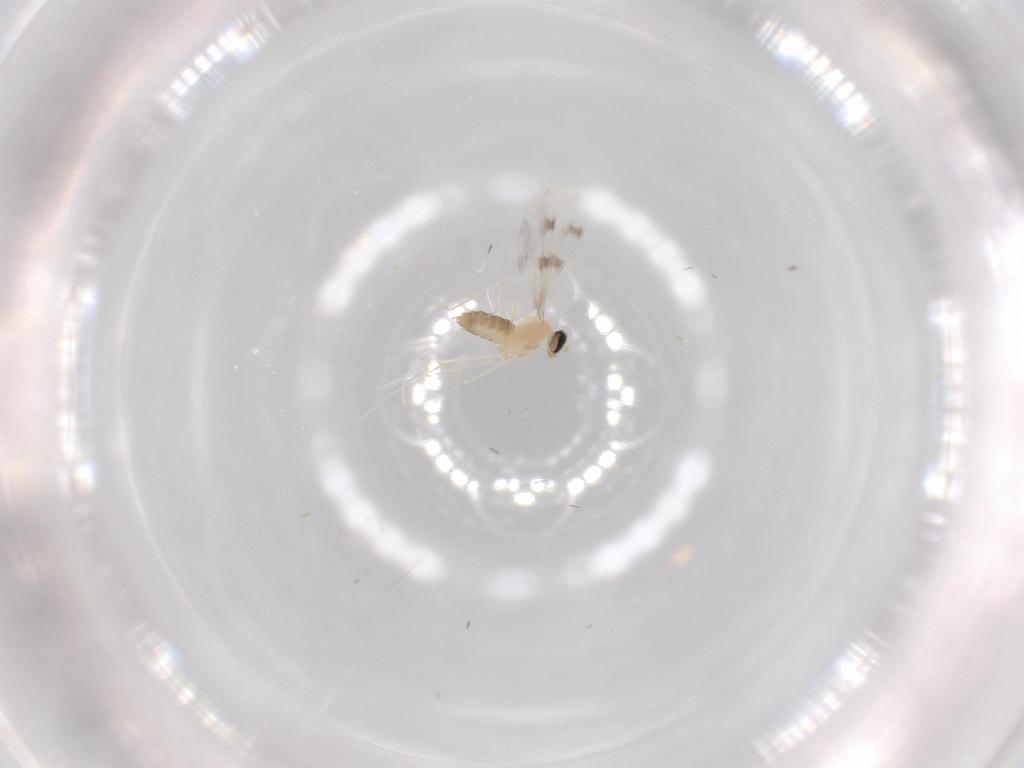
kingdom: Animalia
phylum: Arthropoda
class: Insecta
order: Diptera
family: Cecidomyiidae
